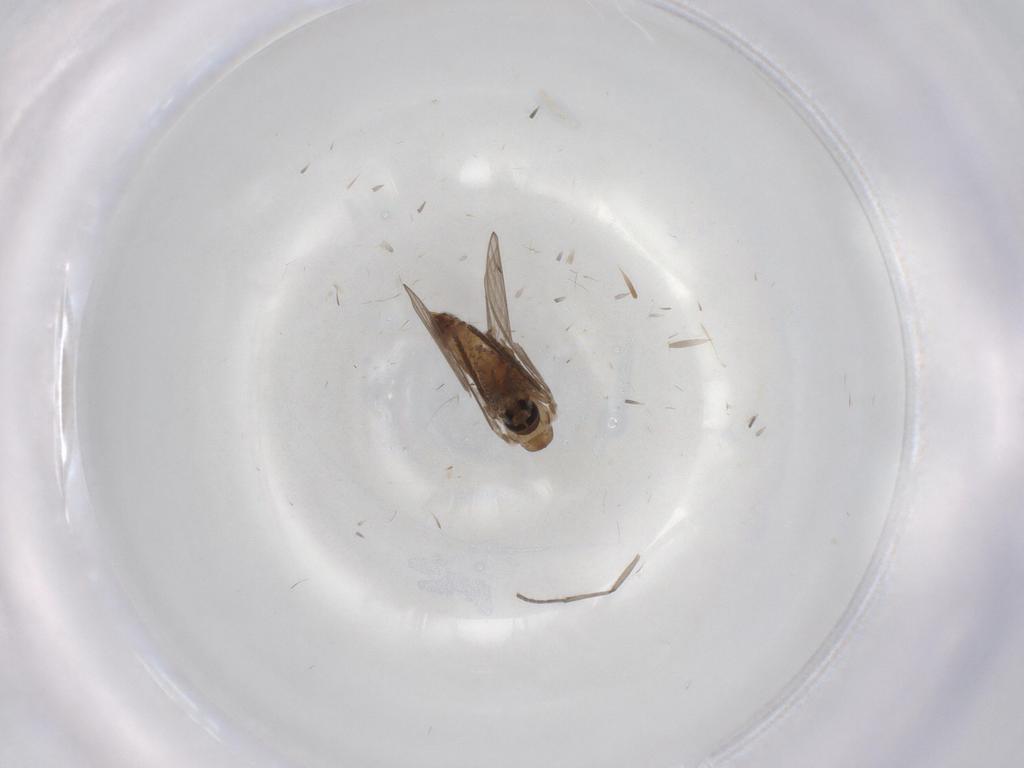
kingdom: Animalia
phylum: Arthropoda
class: Insecta
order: Diptera
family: Psychodidae
